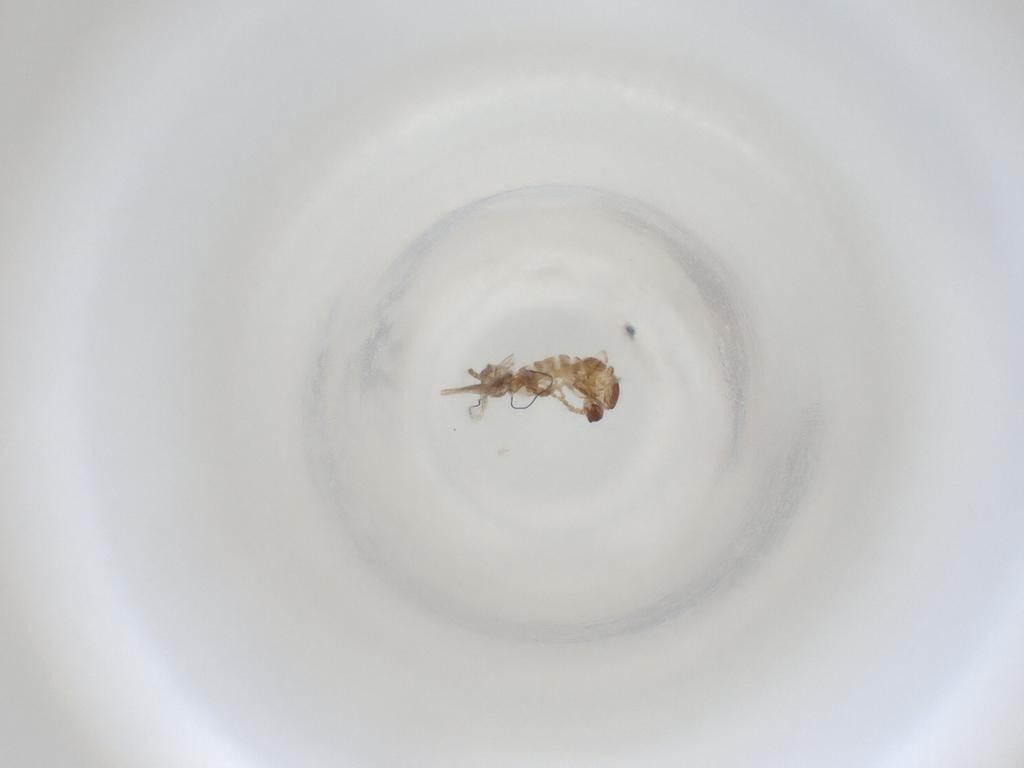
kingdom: Animalia
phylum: Arthropoda
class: Insecta
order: Diptera
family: Cecidomyiidae
